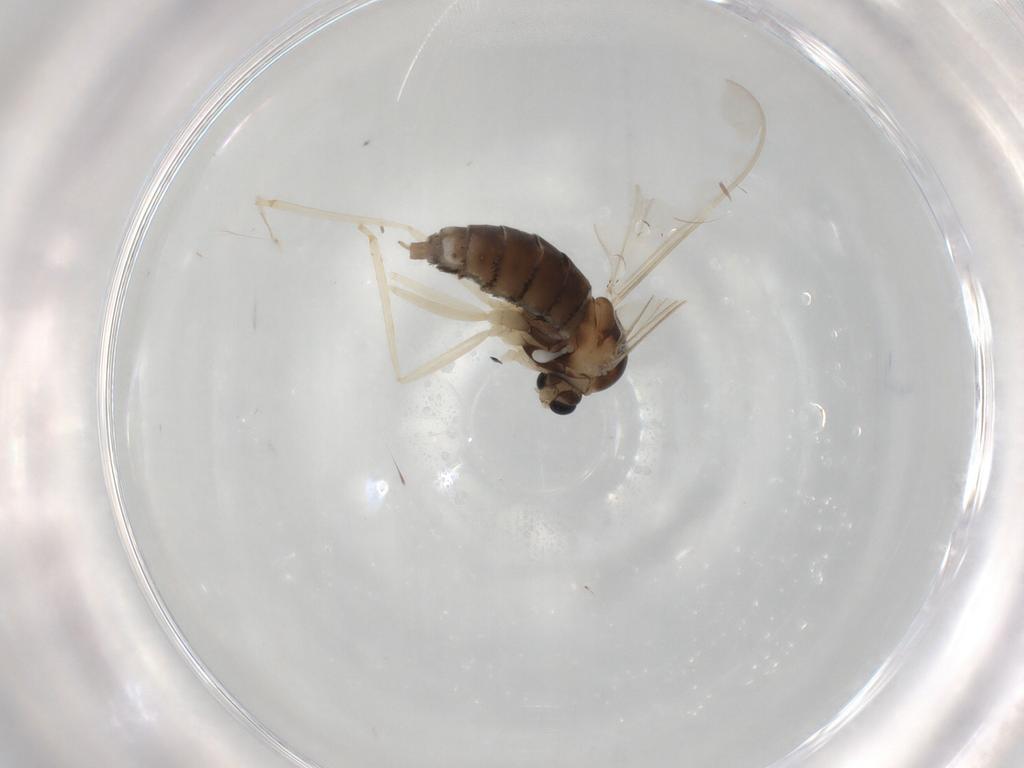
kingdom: Animalia
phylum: Arthropoda
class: Insecta
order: Diptera
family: Cecidomyiidae
